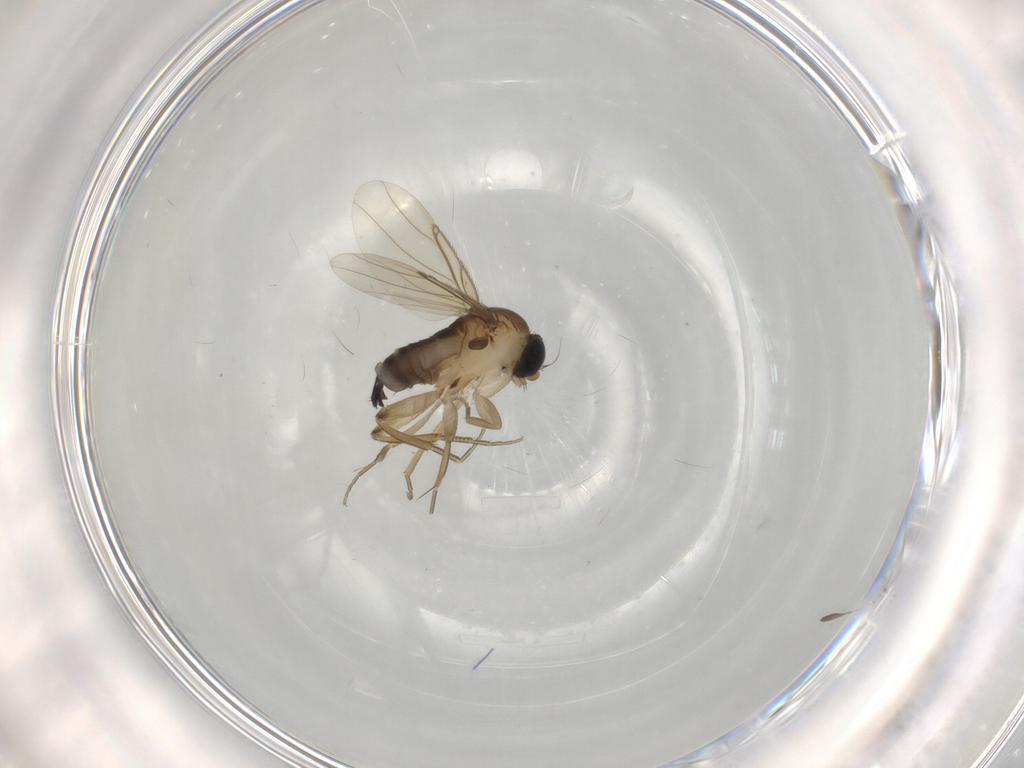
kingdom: Animalia
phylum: Arthropoda
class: Insecta
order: Diptera
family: Phoridae
